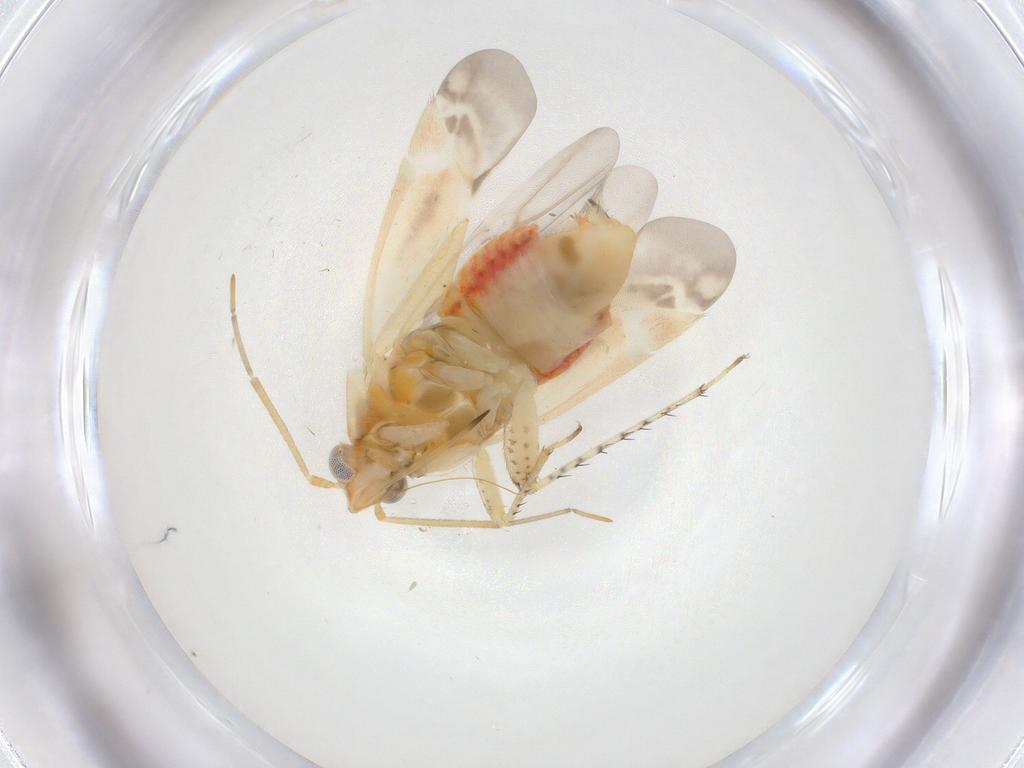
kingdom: Animalia
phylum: Arthropoda
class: Insecta
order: Hemiptera
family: Miridae
